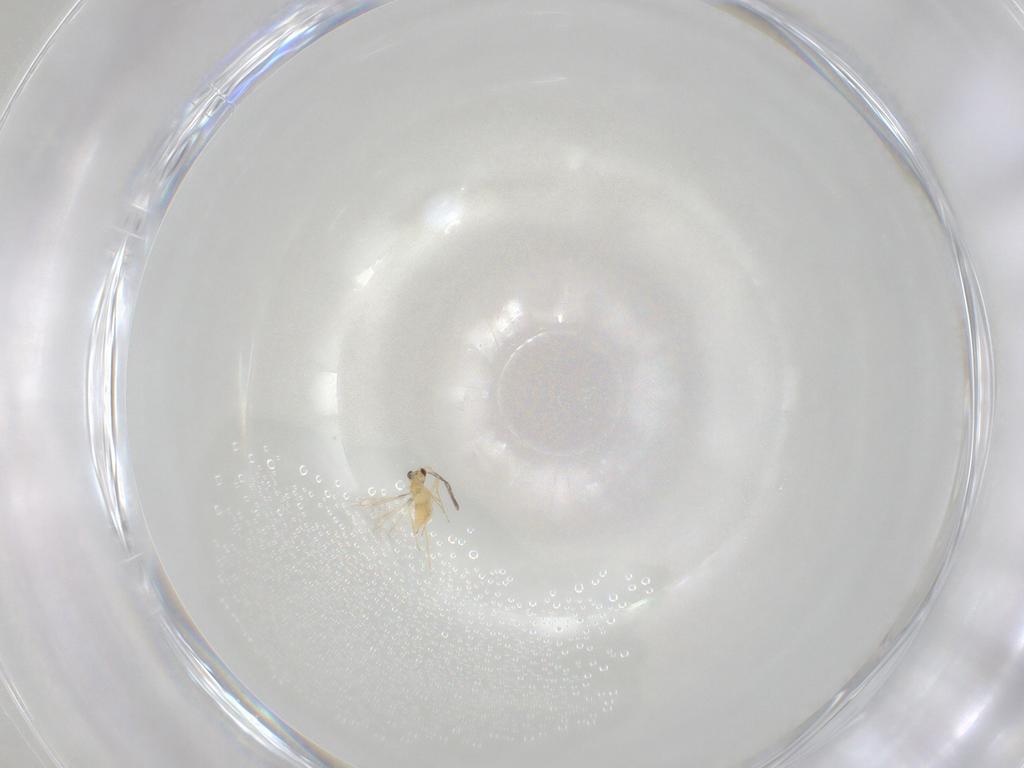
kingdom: Animalia
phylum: Arthropoda
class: Insecta
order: Hymenoptera
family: Mymaridae
